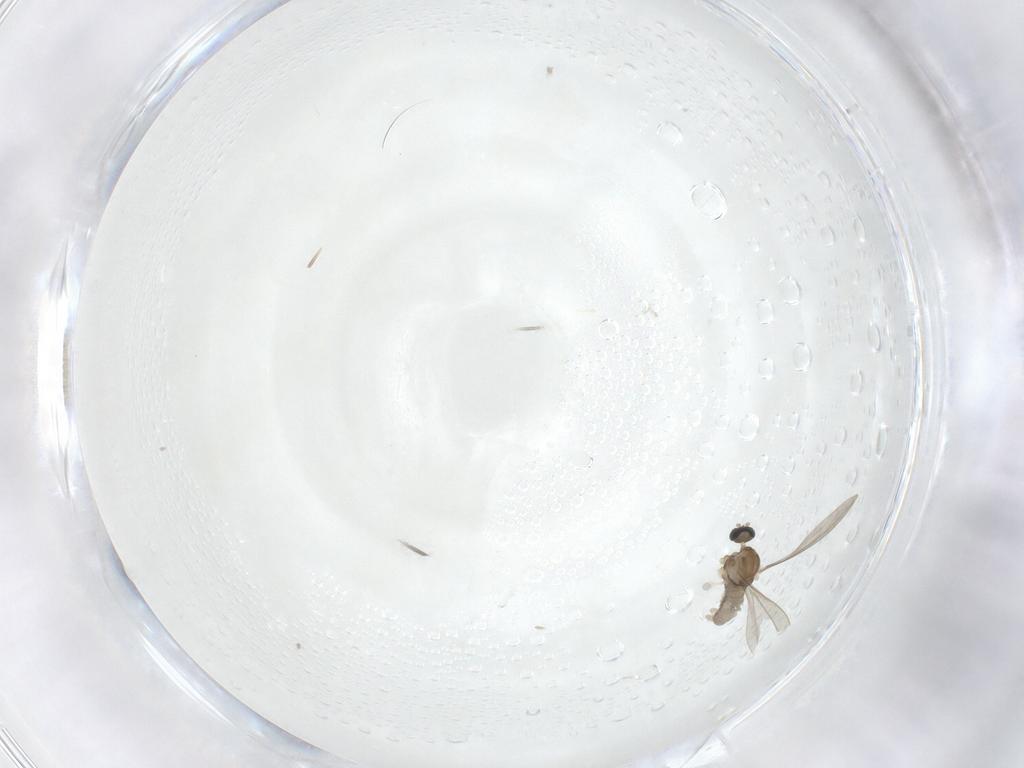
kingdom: Animalia
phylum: Arthropoda
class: Insecta
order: Diptera
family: Cecidomyiidae
